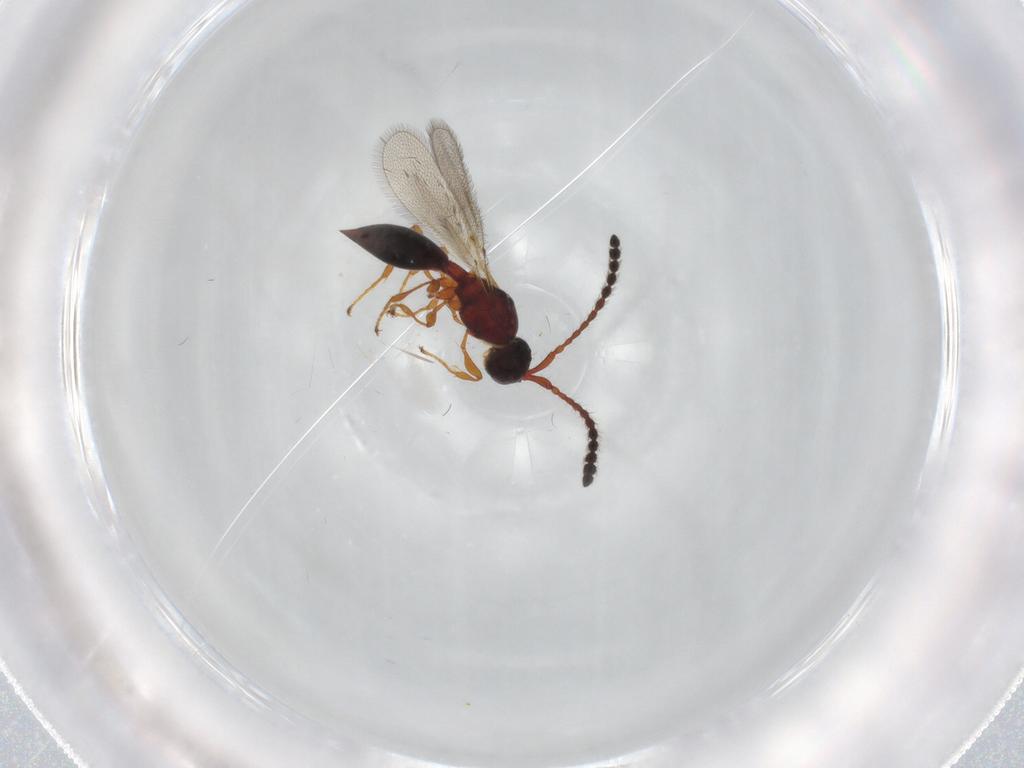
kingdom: Animalia
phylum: Arthropoda
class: Insecta
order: Hymenoptera
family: Diapriidae
